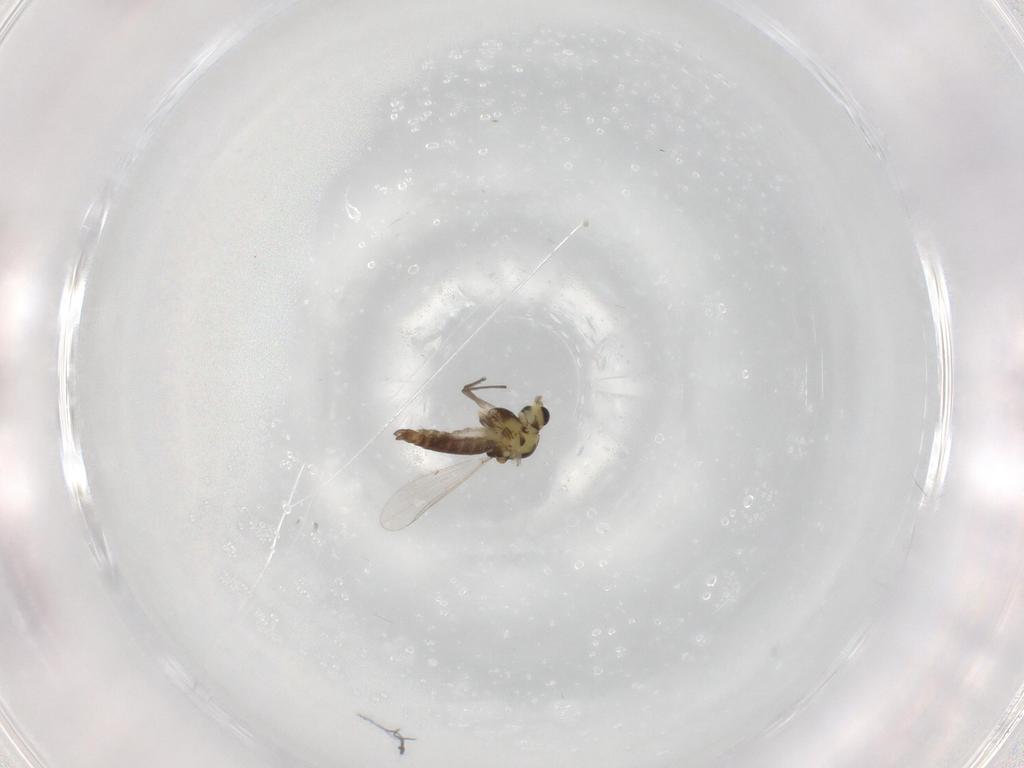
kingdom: Animalia
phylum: Arthropoda
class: Insecta
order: Diptera
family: Chironomidae
